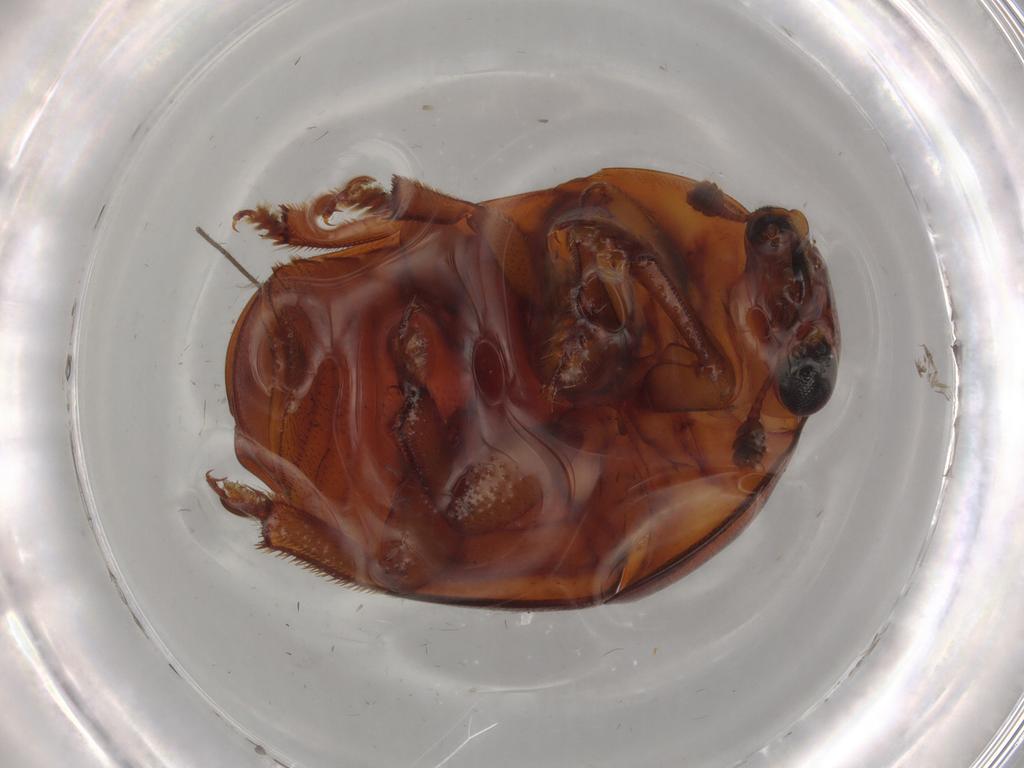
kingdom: Animalia
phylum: Arthropoda
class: Insecta
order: Coleoptera
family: Nitidulidae
